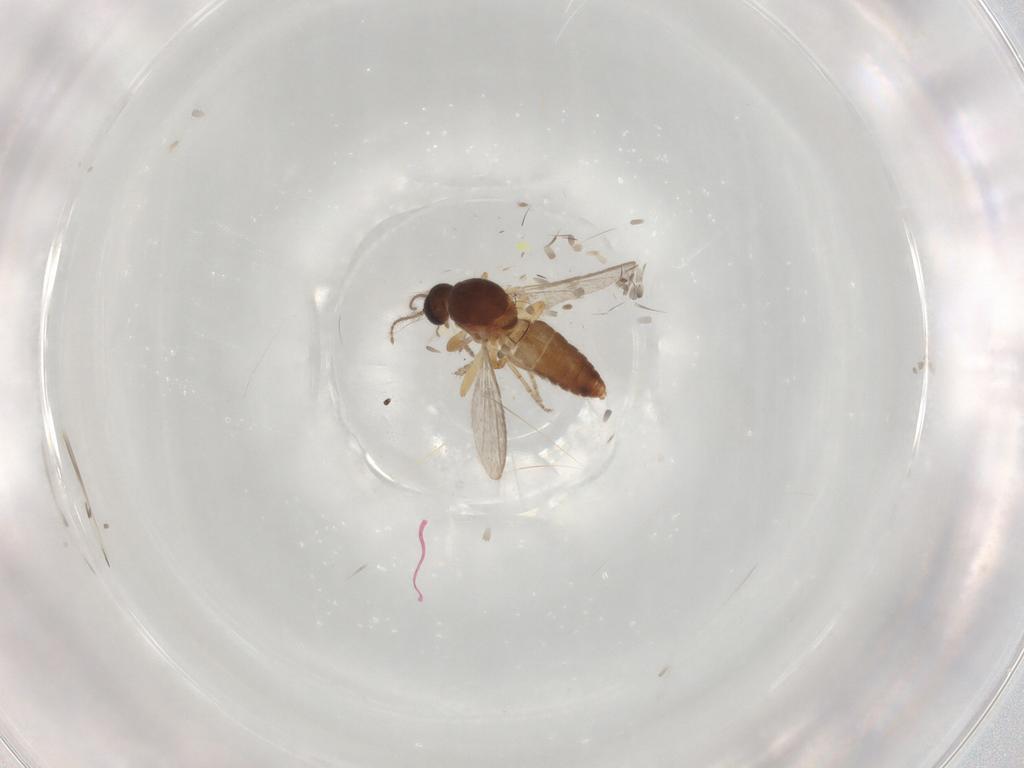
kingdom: Animalia
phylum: Arthropoda
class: Insecta
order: Diptera
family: Ceratopogonidae
